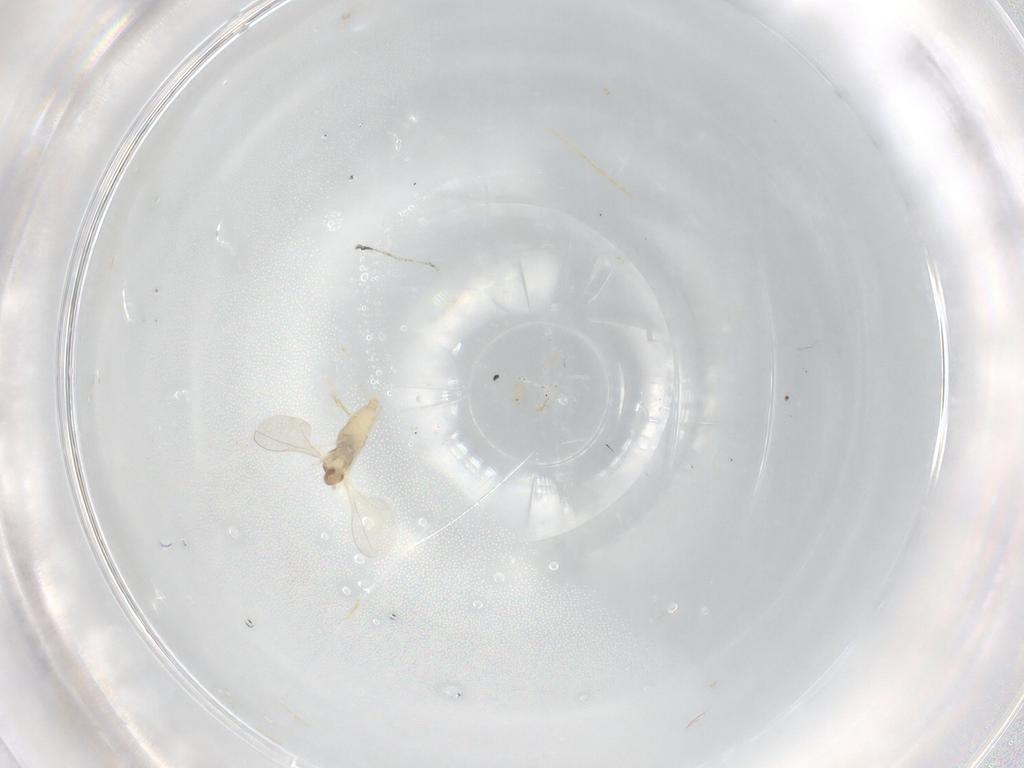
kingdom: Animalia
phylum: Arthropoda
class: Insecta
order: Diptera
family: Cecidomyiidae
